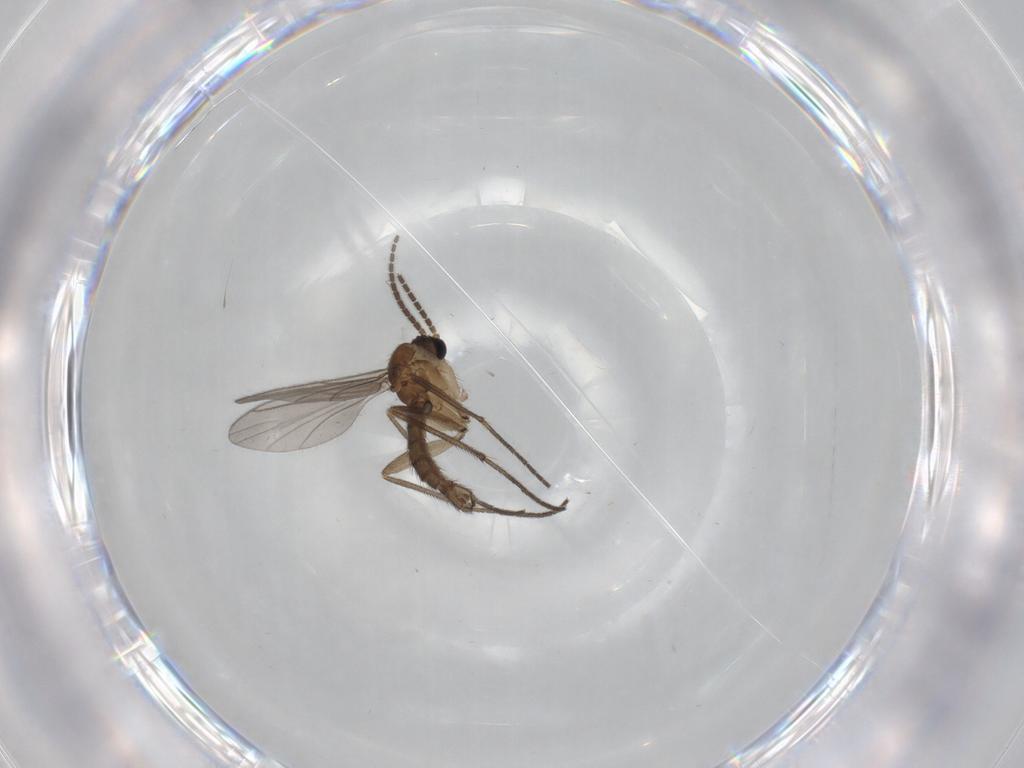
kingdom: Animalia
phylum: Arthropoda
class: Insecta
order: Diptera
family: Sciaridae
